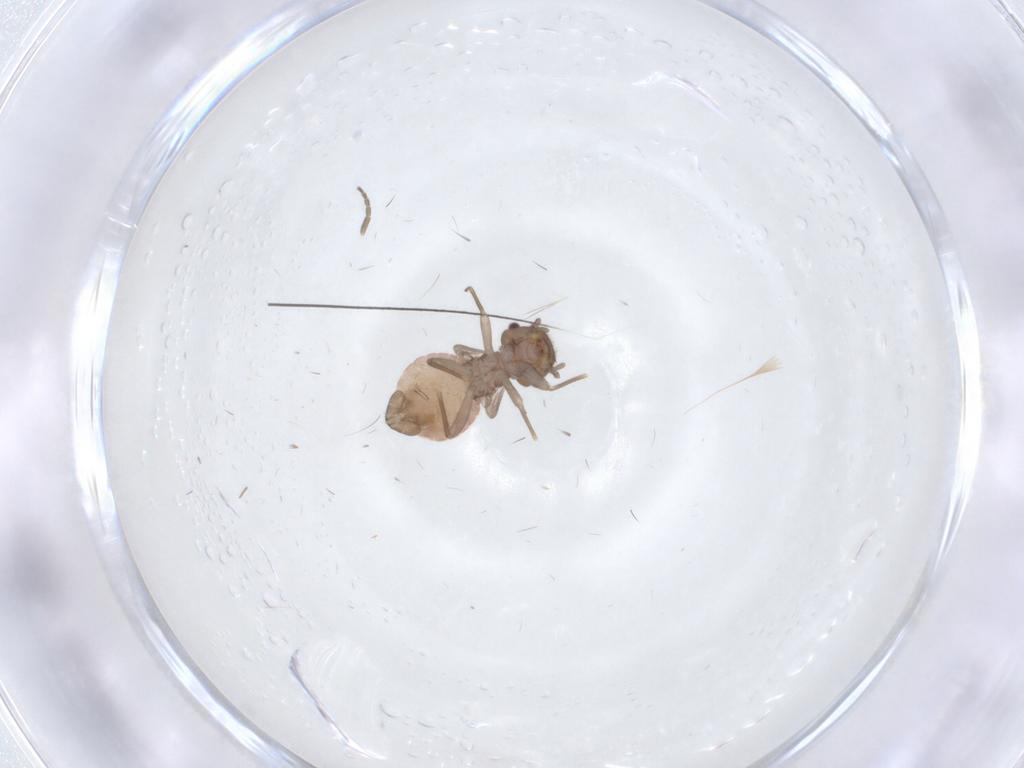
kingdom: Animalia
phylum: Arthropoda
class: Insecta
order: Psocodea
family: Ectopsocidae
